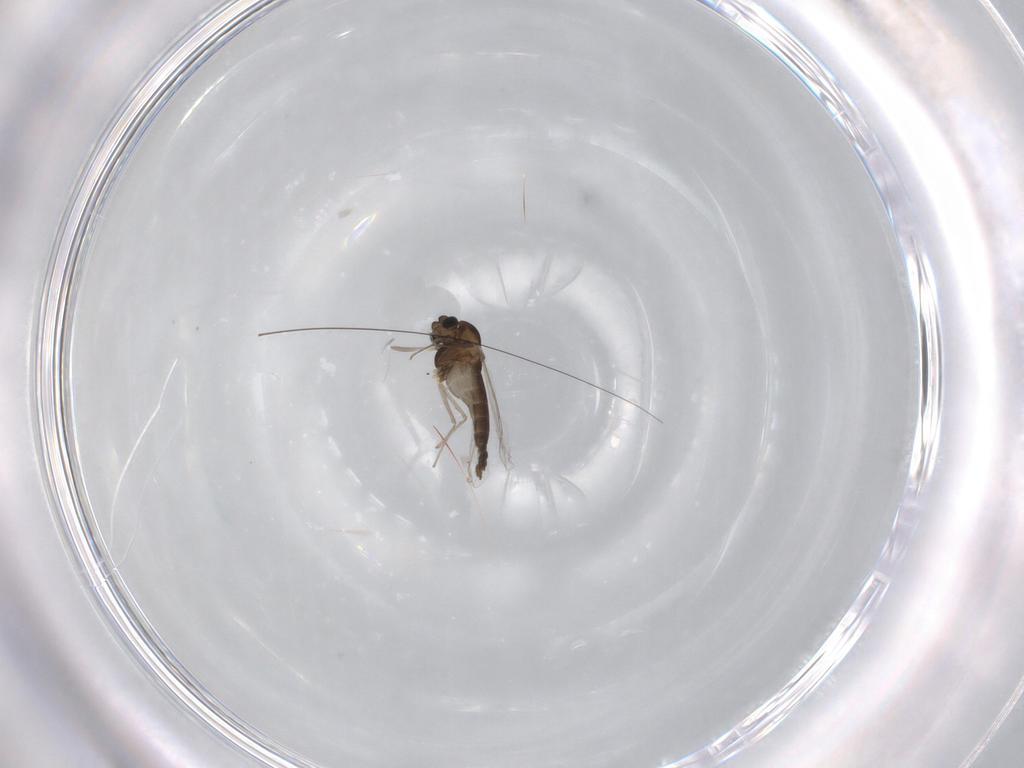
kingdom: Animalia
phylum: Arthropoda
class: Insecta
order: Diptera
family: Sciaridae
